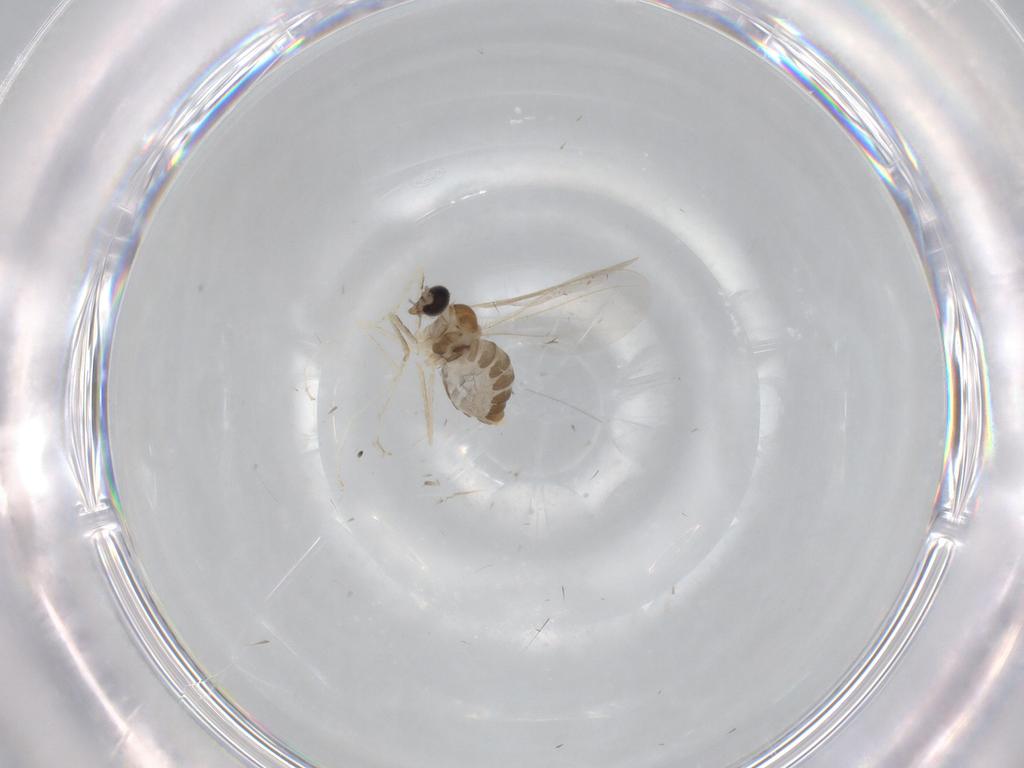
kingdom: Animalia
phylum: Arthropoda
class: Insecta
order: Diptera
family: Cecidomyiidae
